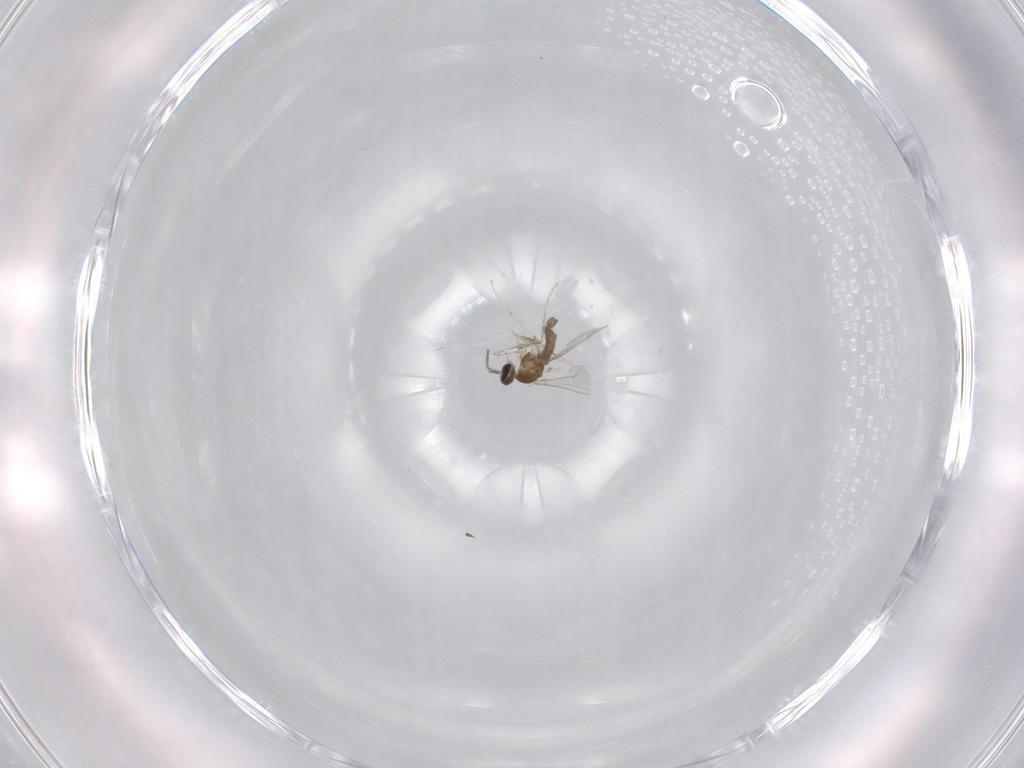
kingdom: Animalia
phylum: Arthropoda
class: Insecta
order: Diptera
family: Cecidomyiidae
